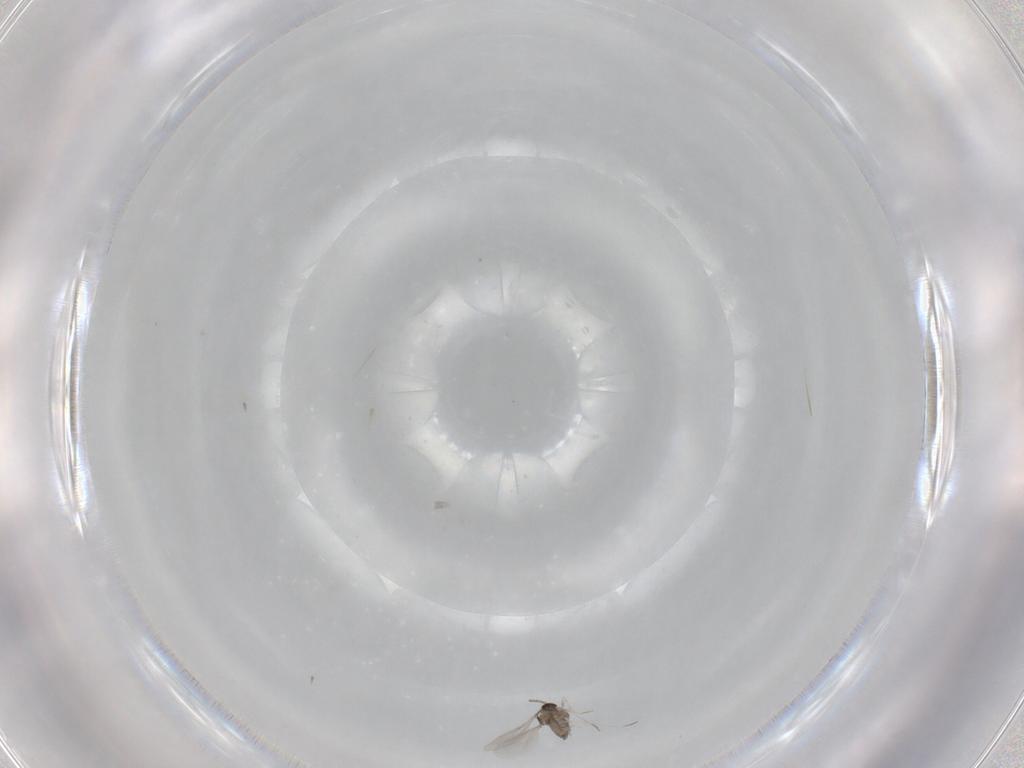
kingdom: Animalia
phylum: Arthropoda
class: Insecta
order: Diptera
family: Cecidomyiidae
